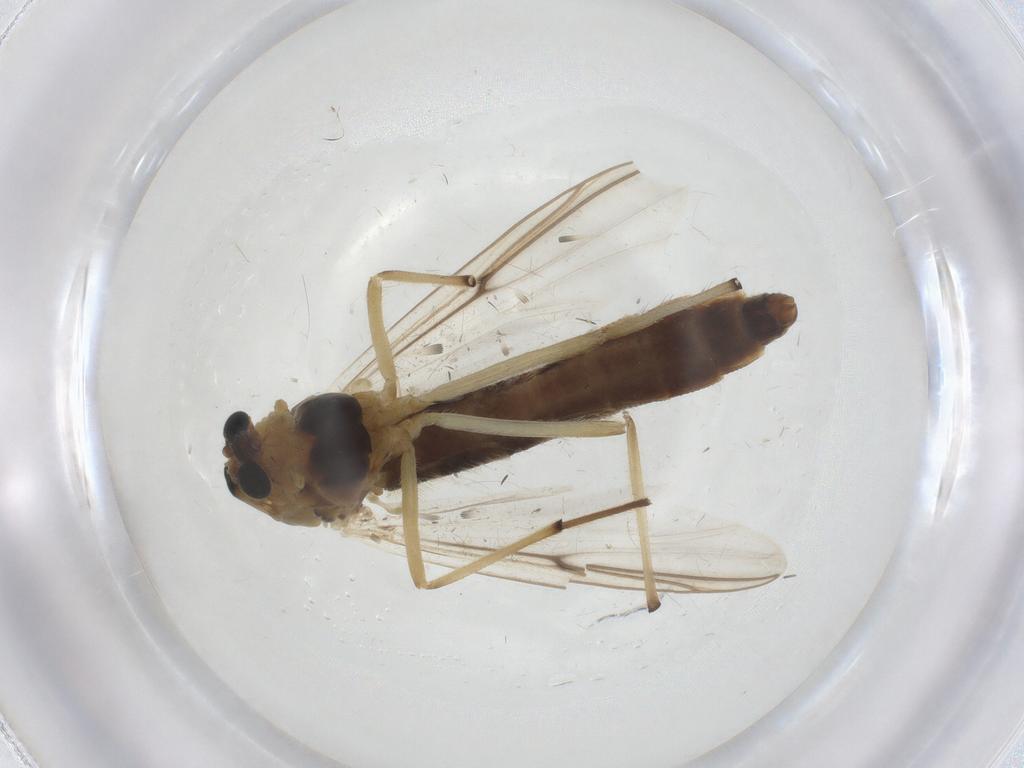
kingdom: Animalia
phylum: Arthropoda
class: Insecta
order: Diptera
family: Chironomidae
